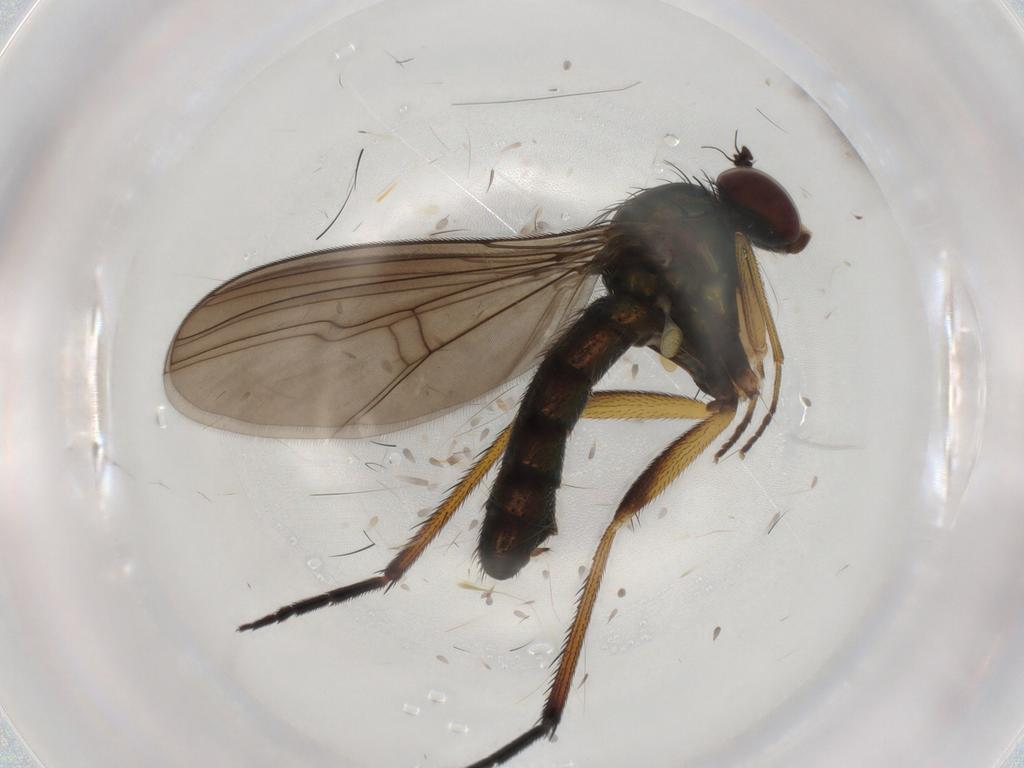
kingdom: Animalia
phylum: Arthropoda
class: Insecta
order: Diptera
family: Dolichopodidae
